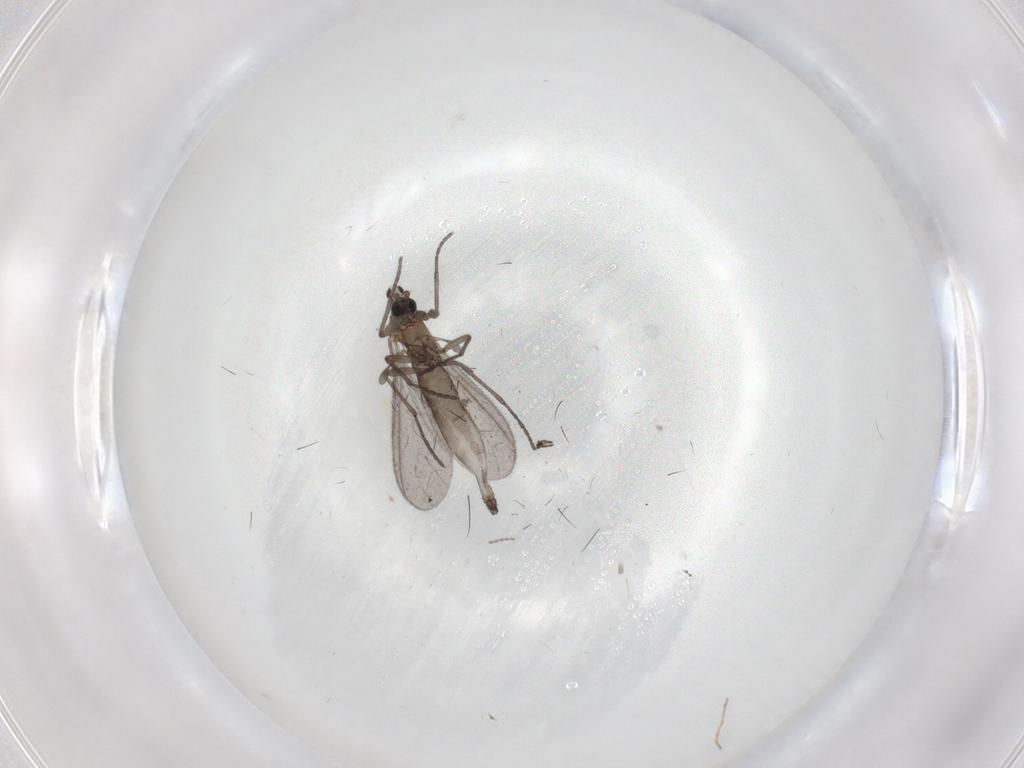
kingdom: Animalia
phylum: Arthropoda
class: Insecta
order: Diptera
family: Sciaridae
